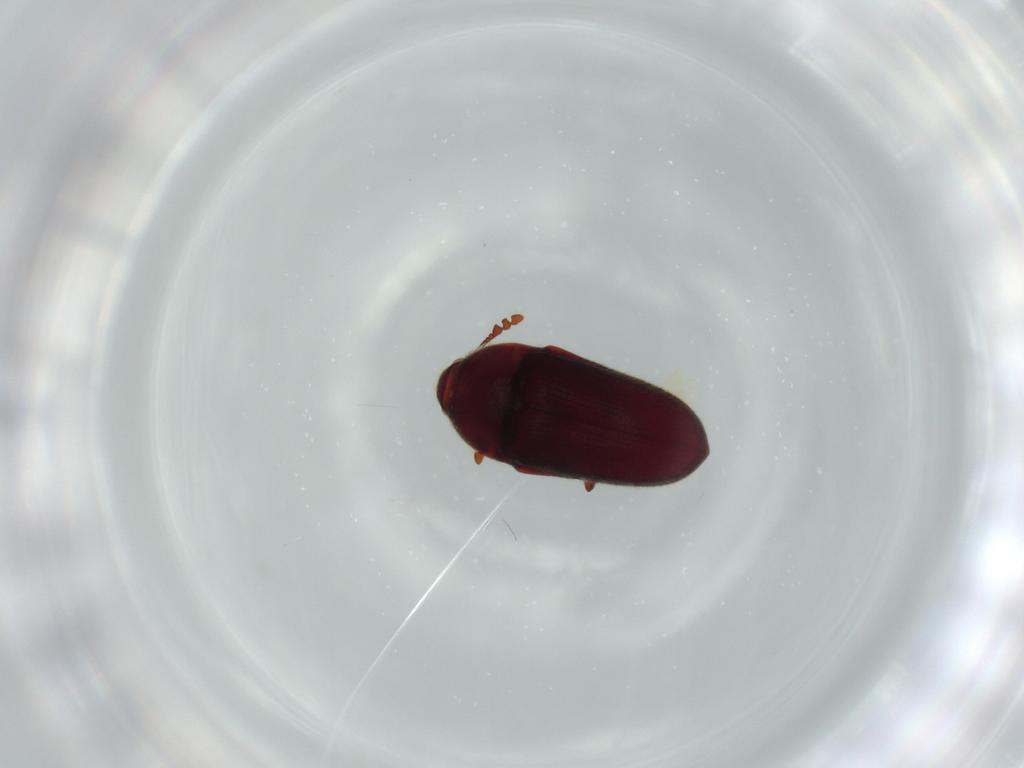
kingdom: Animalia
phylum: Arthropoda
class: Insecta
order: Coleoptera
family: Throscidae
